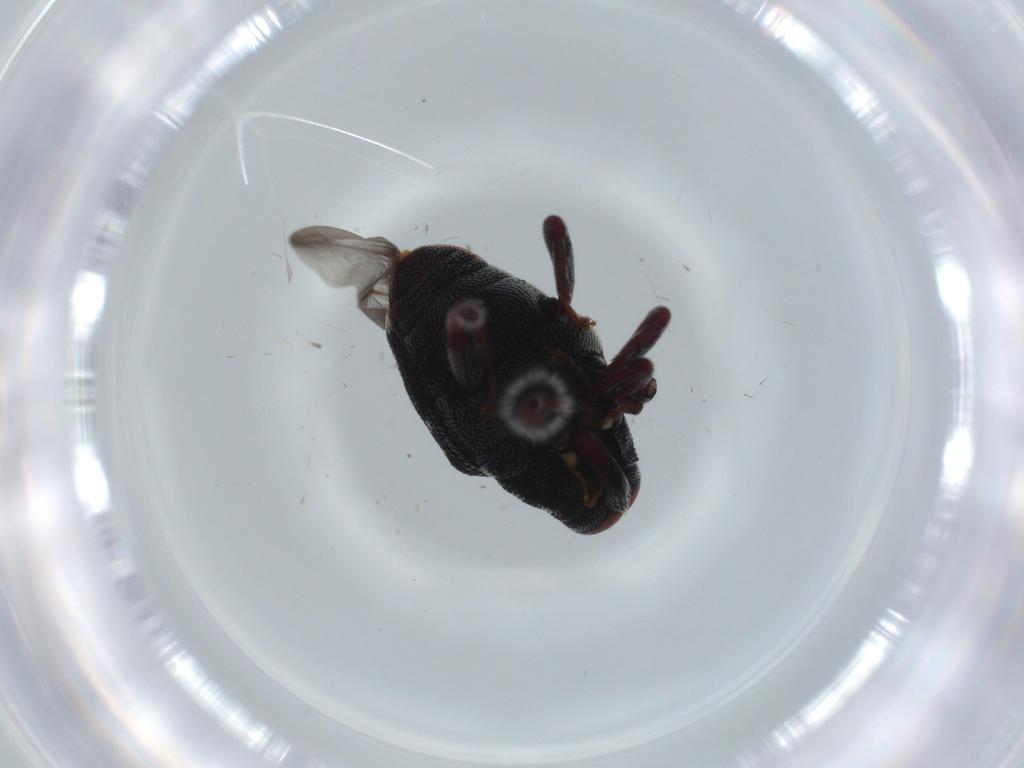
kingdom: Animalia
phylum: Arthropoda
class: Insecta
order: Coleoptera
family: Curculionidae
